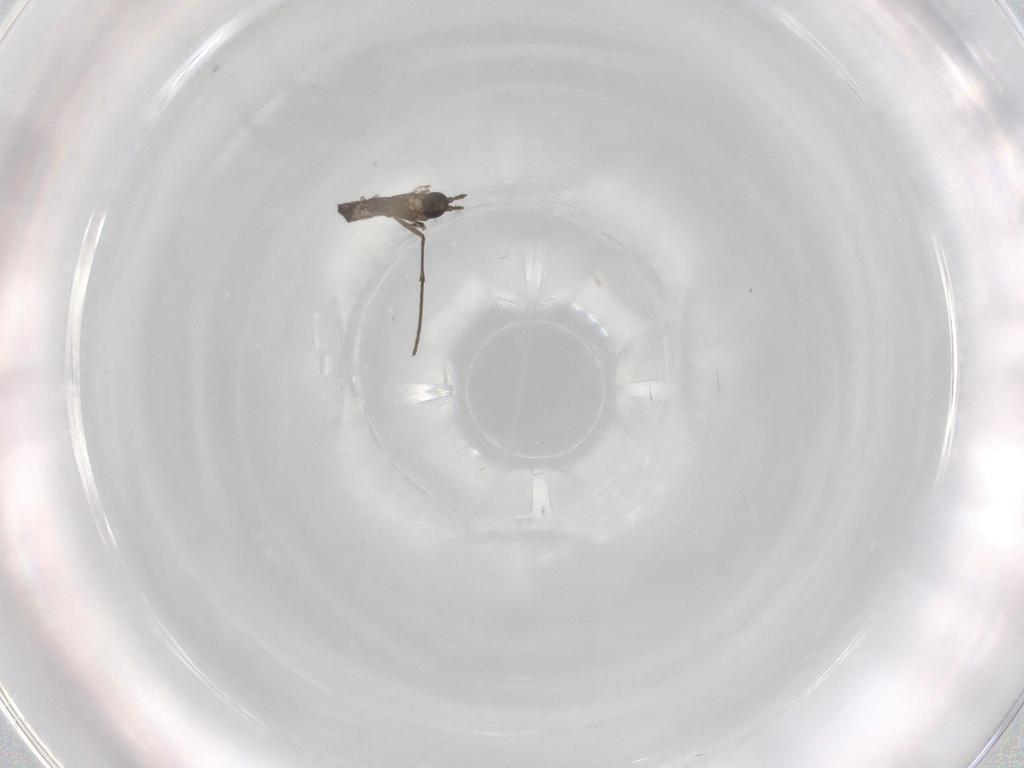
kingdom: Animalia
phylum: Arthropoda
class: Insecta
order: Diptera
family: Sciaridae
